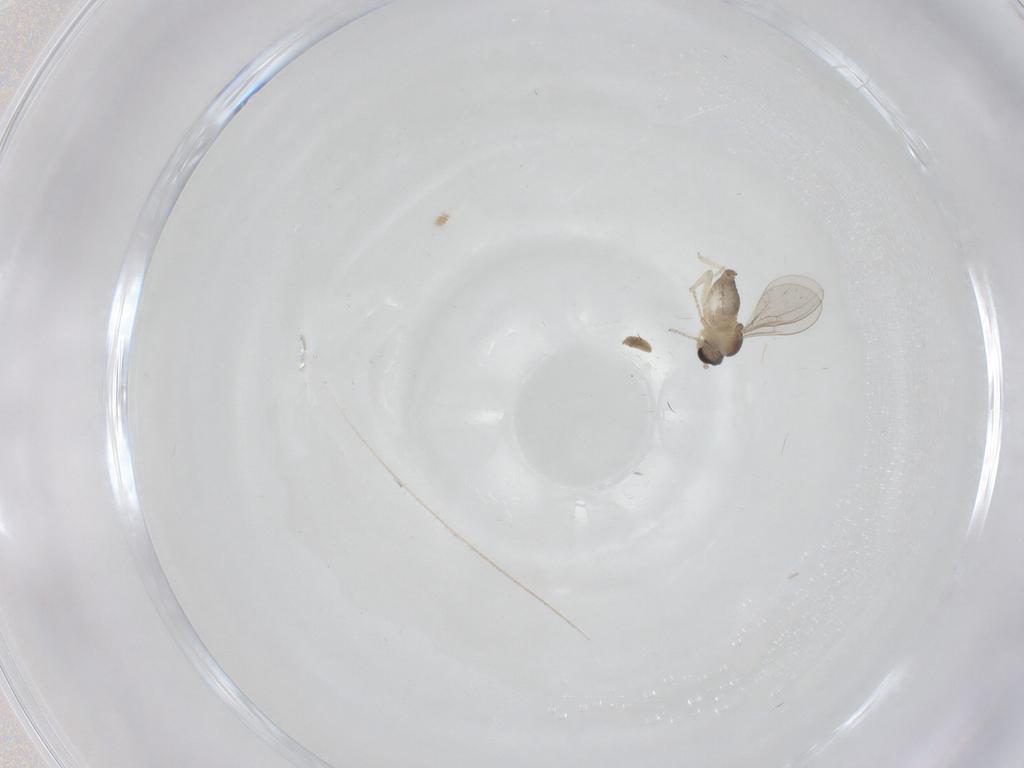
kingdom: Animalia
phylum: Arthropoda
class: Insecta
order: Diptera
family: Cecidomyiidae
